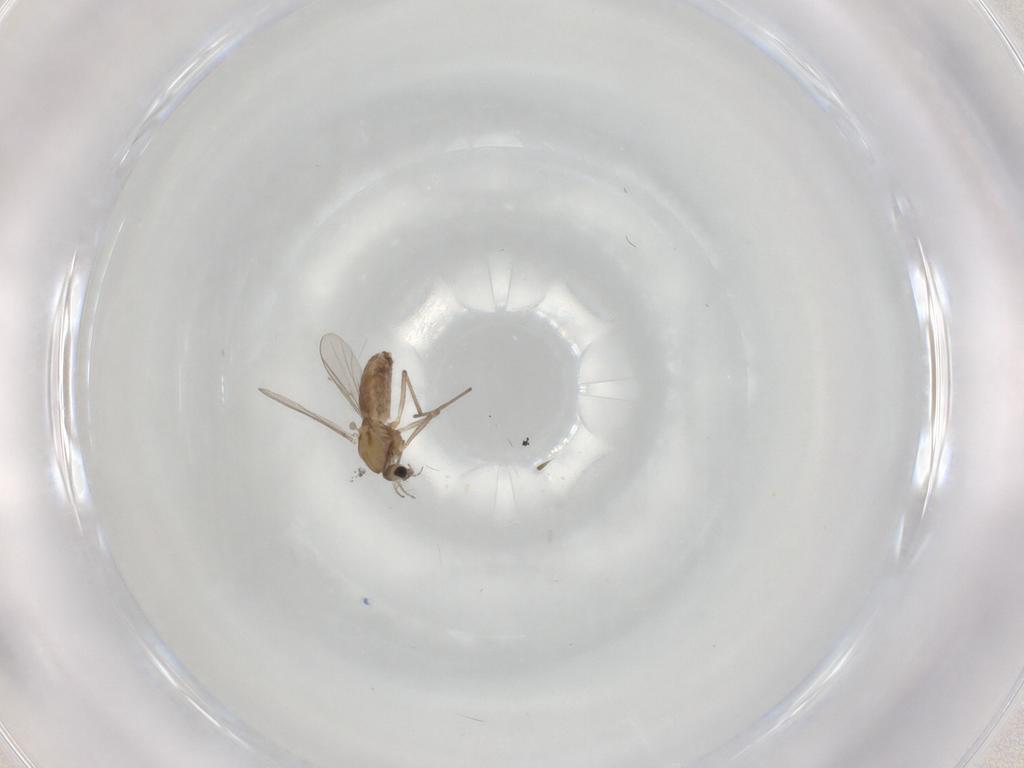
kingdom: Animalia
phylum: Arthropoda
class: Insecta
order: Diptera
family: Chironomidae
